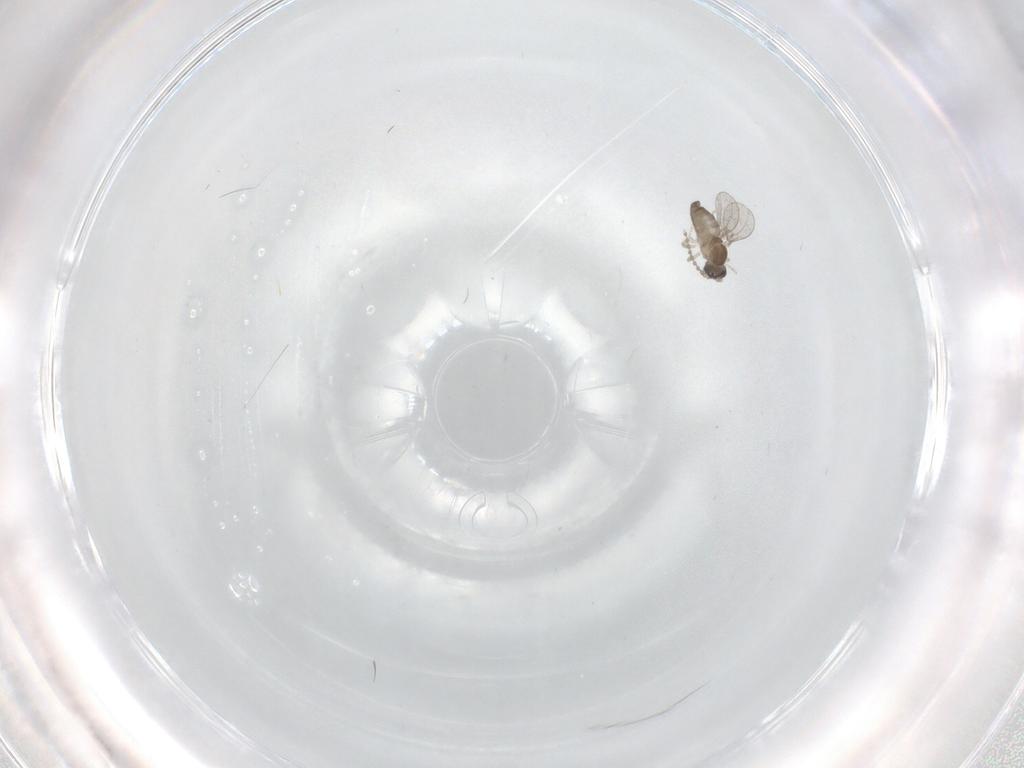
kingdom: Animalia
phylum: Arthropoda
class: Insecta
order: Diptera
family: Cecidomyiidae
